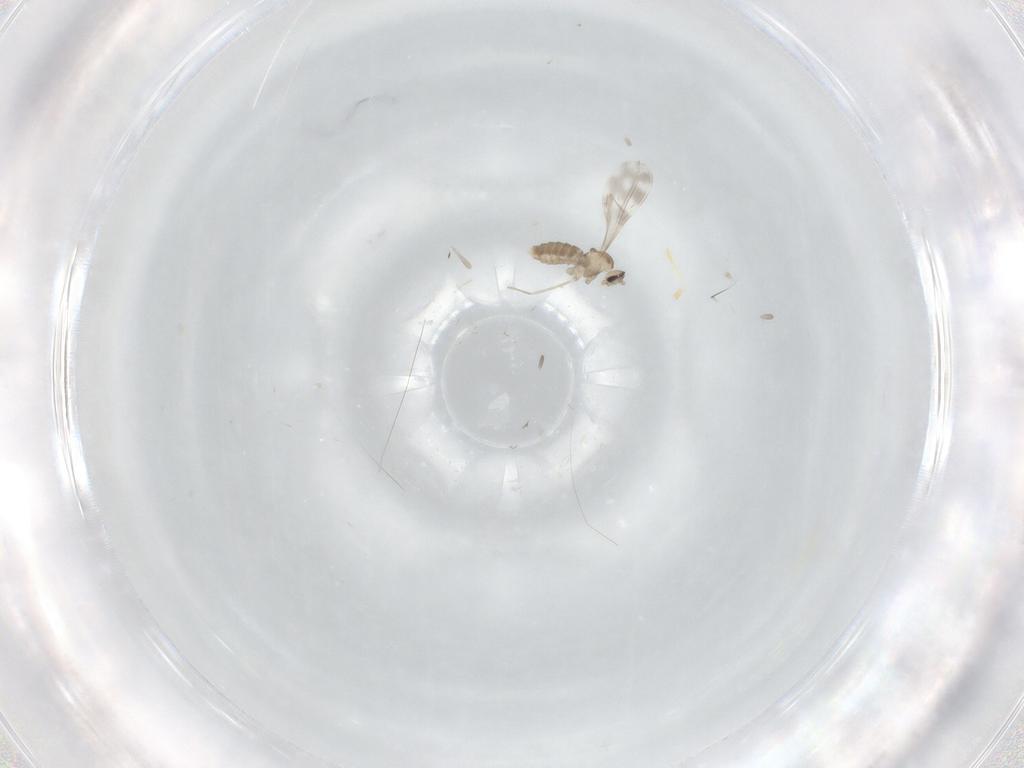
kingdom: Animalia
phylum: Arthropoda
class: Insecta
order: Diptera
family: Cecidomyiidae
